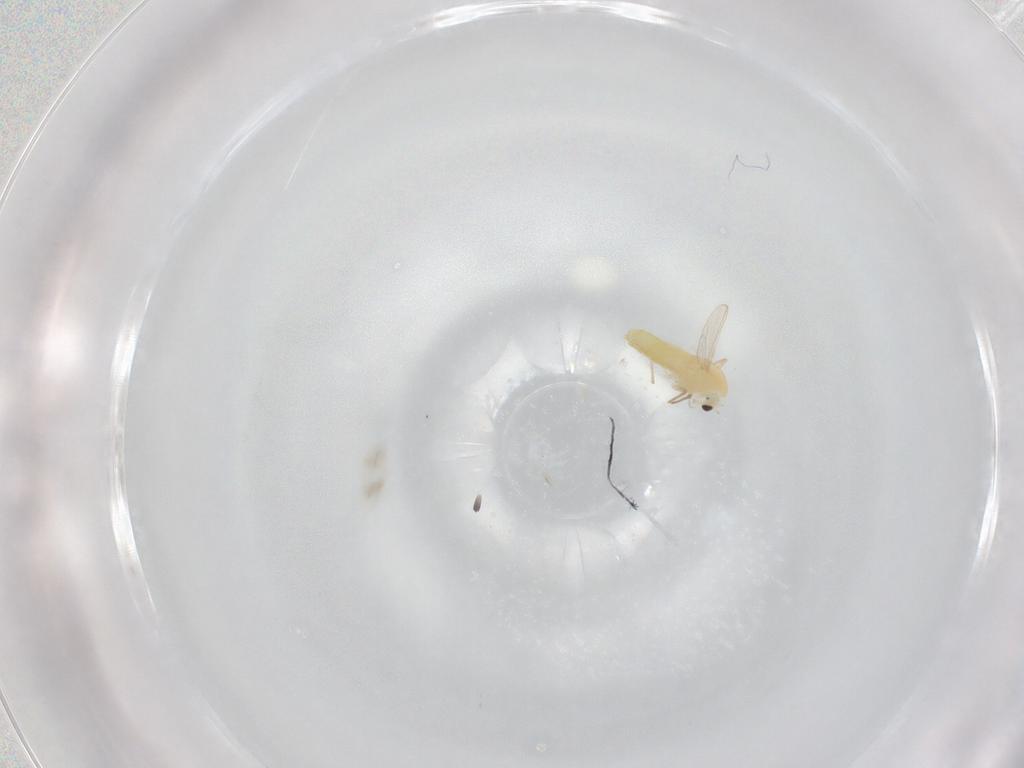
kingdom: Animalia
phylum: Arthropoda
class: Insecta
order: Diptera
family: Chironomidae
